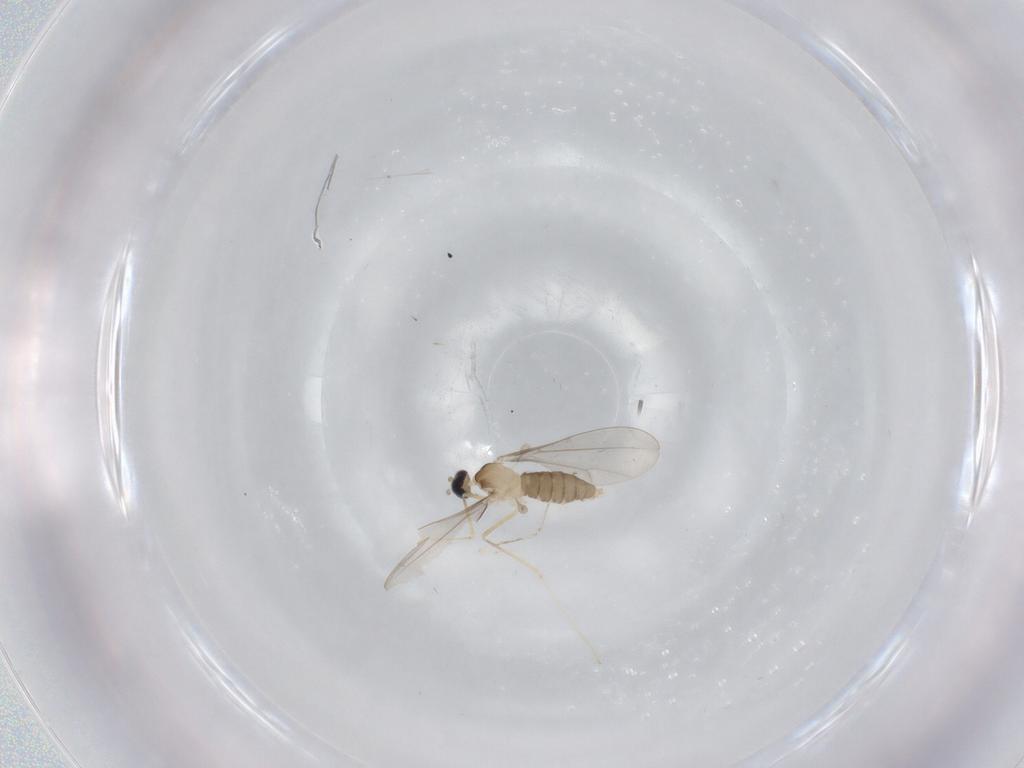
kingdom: Animalia
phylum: Arthropoda
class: Insecta
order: Diptera
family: Cecidomyiidae
